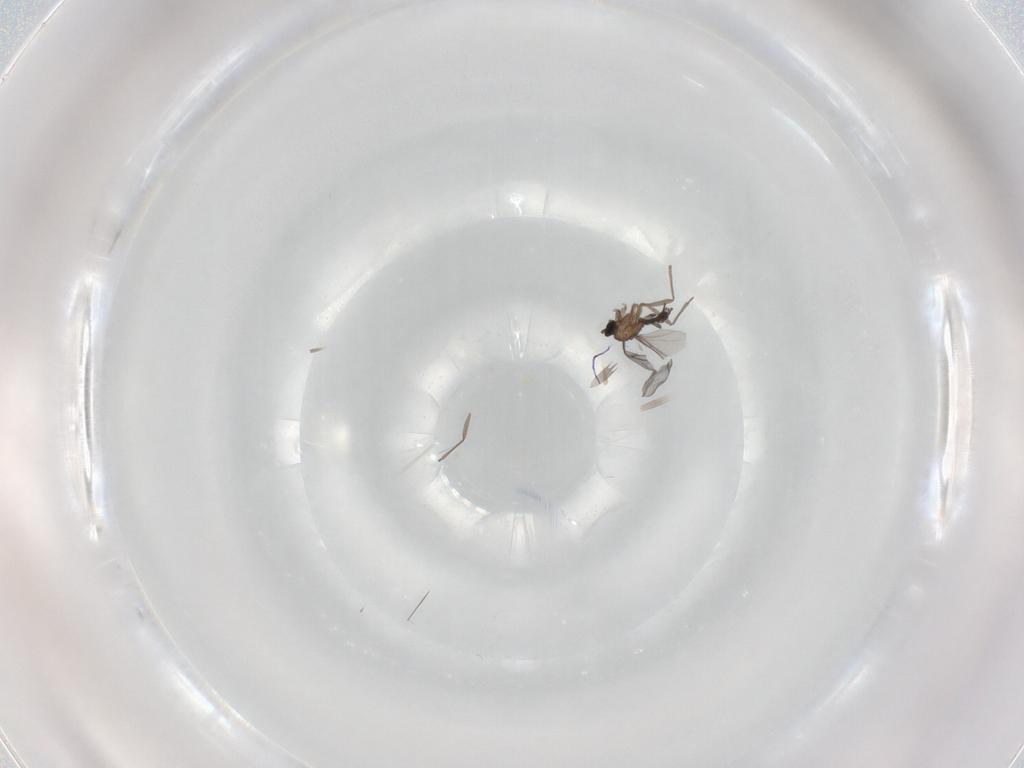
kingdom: Animalia
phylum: Arthropoda
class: Insecta
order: Diptera
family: Sciaridae
